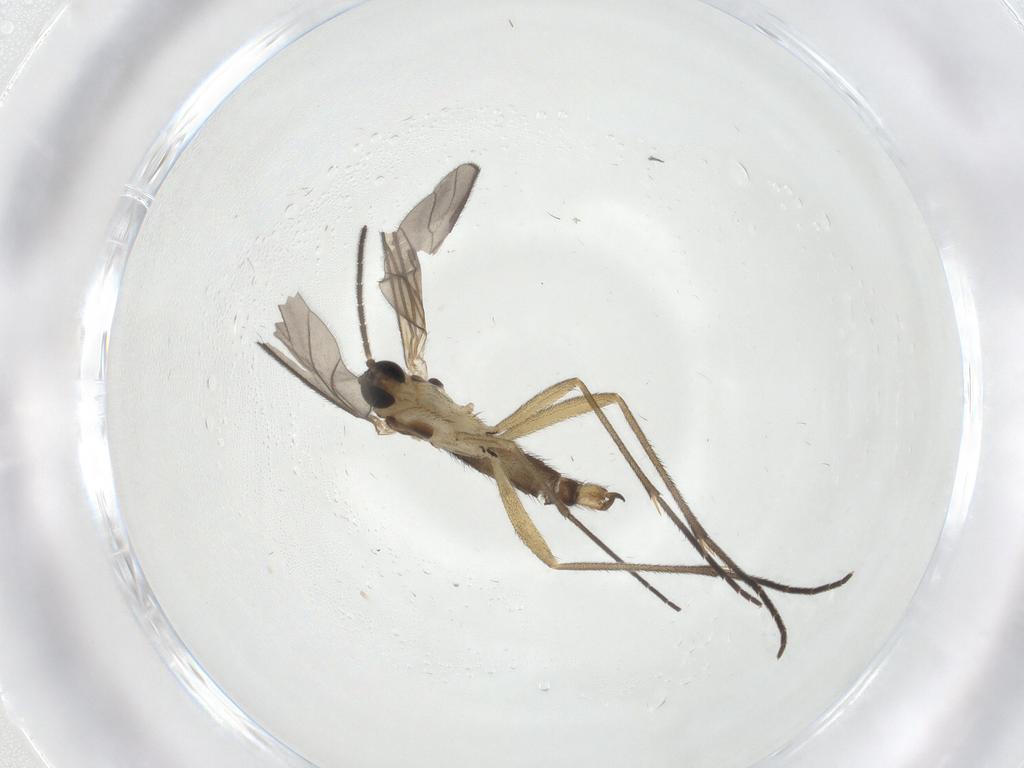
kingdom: Animalia
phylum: Arthropoda
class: Insecta
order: Diptera
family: Sciaridae
